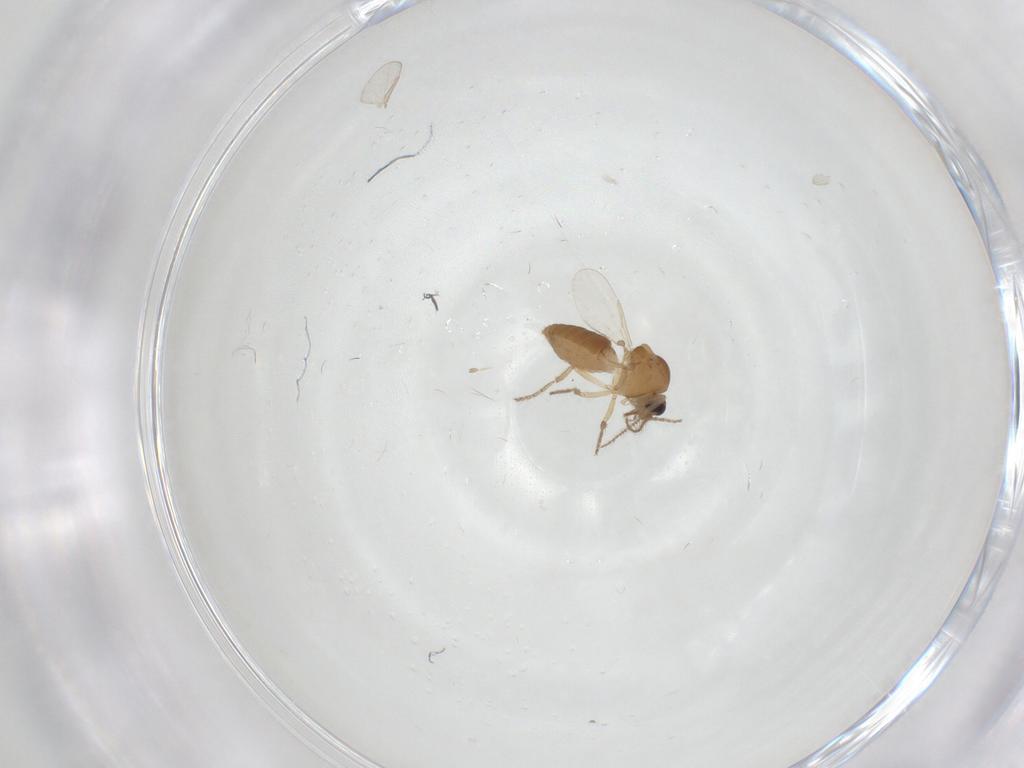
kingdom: Animalia
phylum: Arthropoda
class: Insecta
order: Diptera
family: Ceratopogonidae
